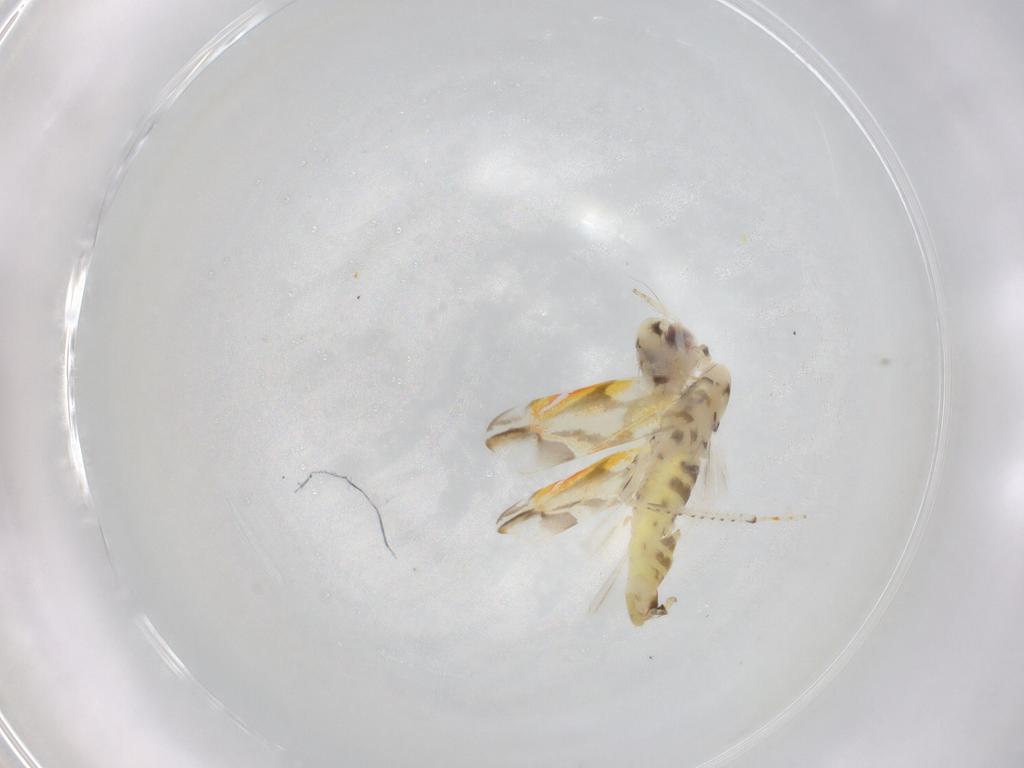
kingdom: Animalia
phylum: Arthropoda
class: Insecta
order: Hemiptera
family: Cicadellidae
